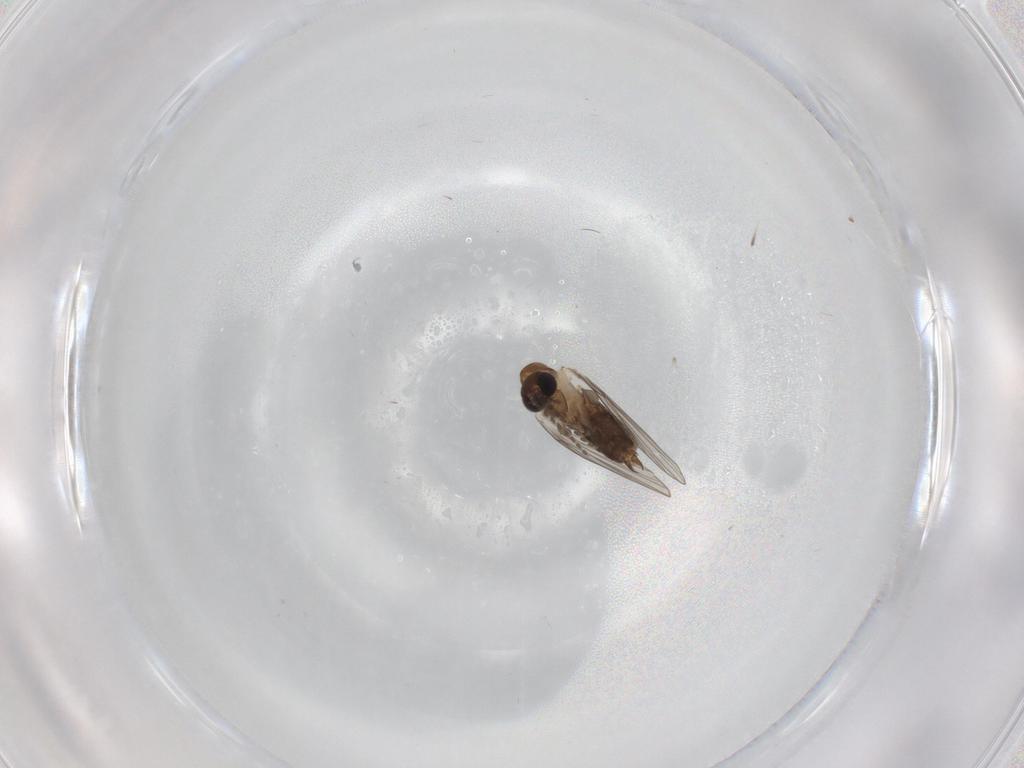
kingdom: Animalia
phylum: Arthropoda
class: Insecta
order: Diptera
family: Psychodidae
